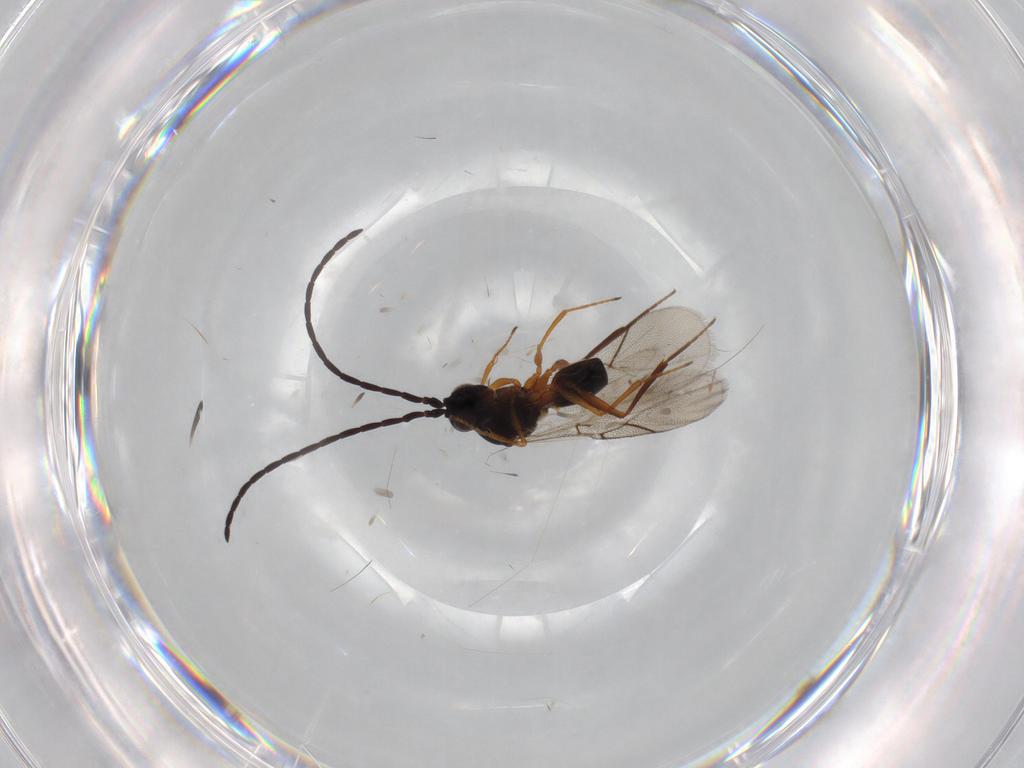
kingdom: Animalia
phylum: Arthropoda
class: Insecta
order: Hymenoptera
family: Figitidae
